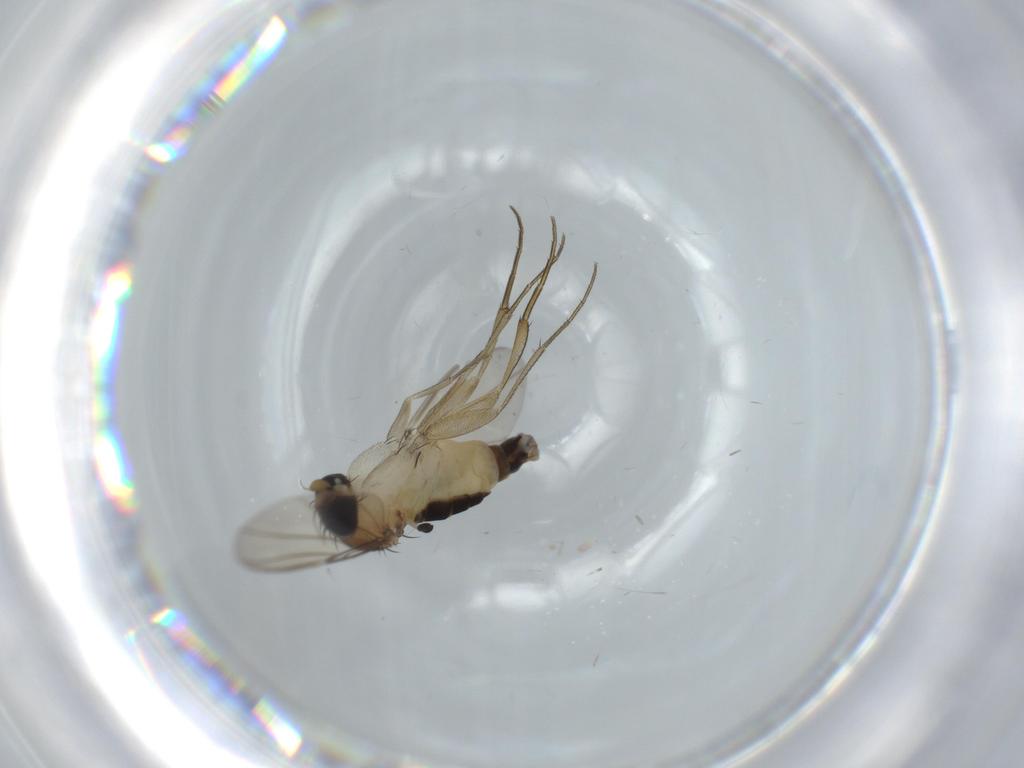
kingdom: Animalia
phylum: Arthropoda
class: Insecta
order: Diptera
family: Phoridae
